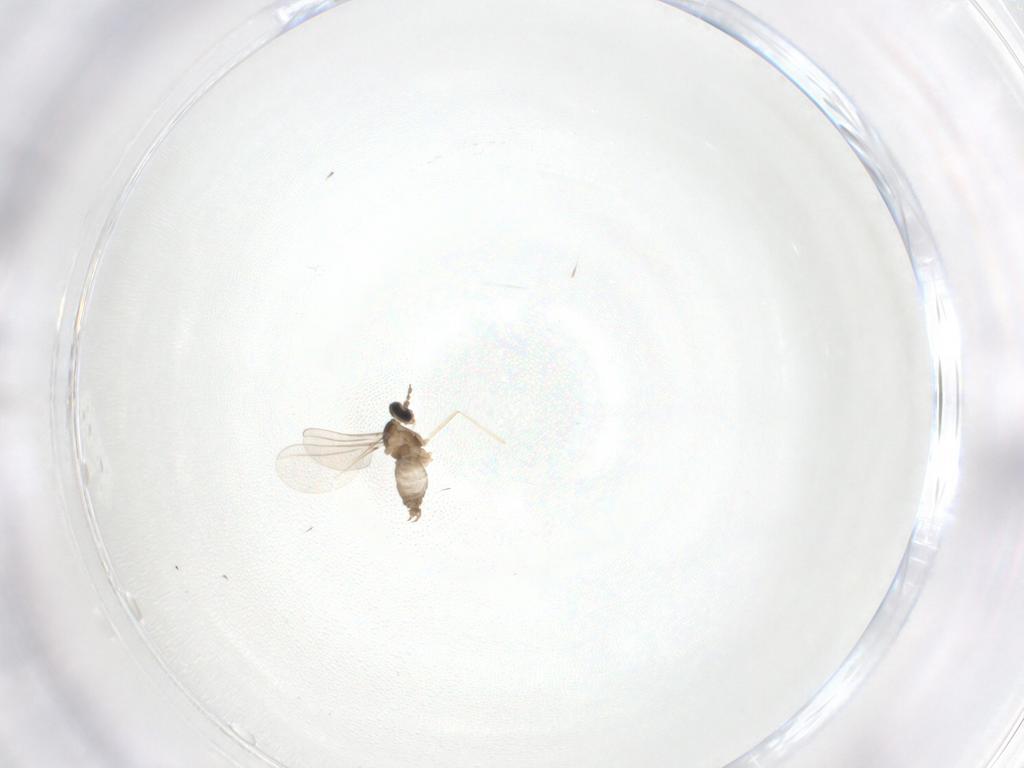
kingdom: Animalia
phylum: Arthropoda
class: Insecta
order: Diptera
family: Cecidomyiidae
